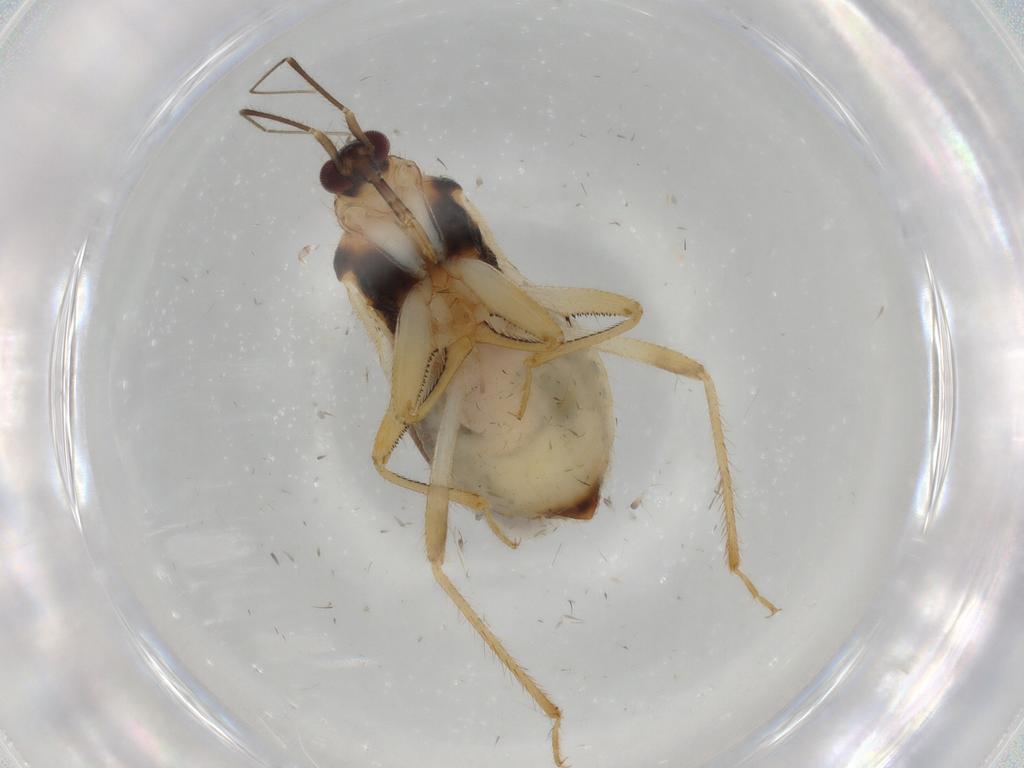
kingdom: Animalia
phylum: Arthropoda
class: Insecta
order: Hemiptera
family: Nabidae
